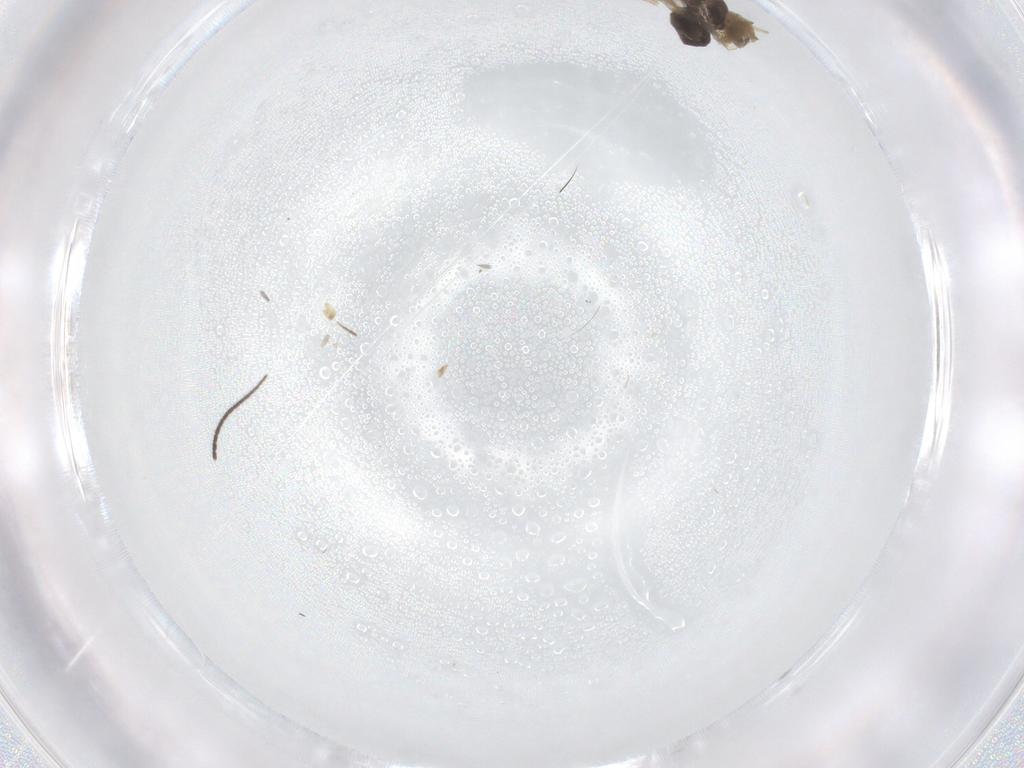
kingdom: Animalia
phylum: Arthropoda
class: Insecta
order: Diptera
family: Sciaridae
